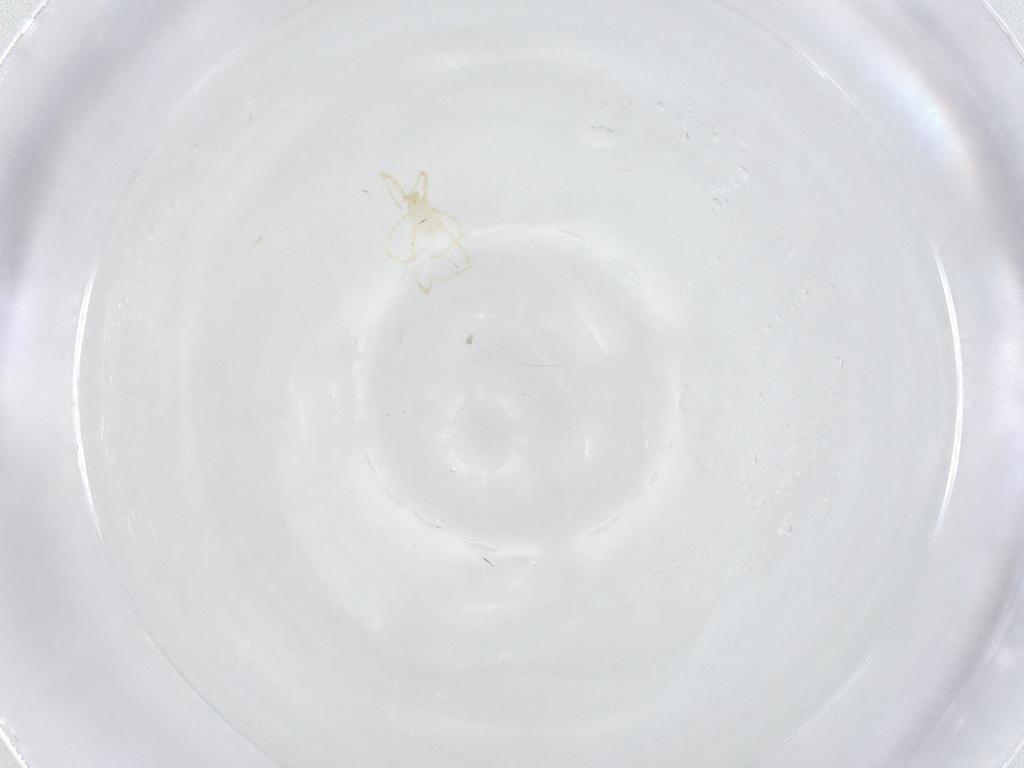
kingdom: Animalia
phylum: Arthropoda
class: Arachnida
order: Trombidiformes
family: Erythraeidae
